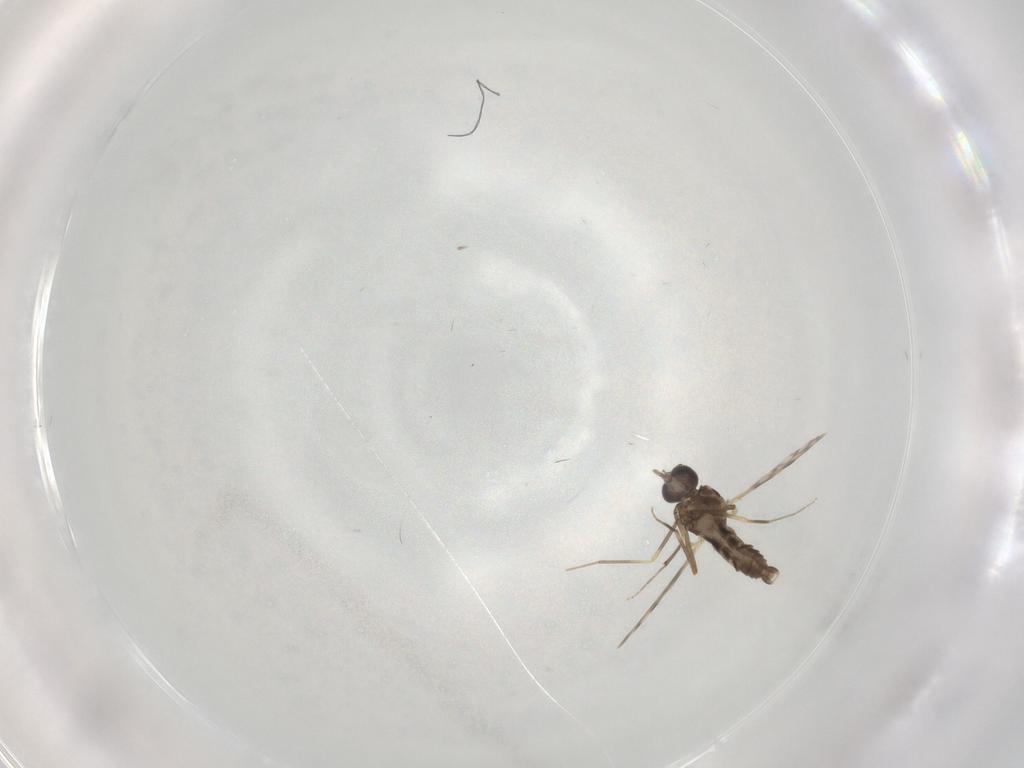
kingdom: Animalia
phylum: Arthropoda
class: Insecta
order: Diptera
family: Ceratopogonidae
